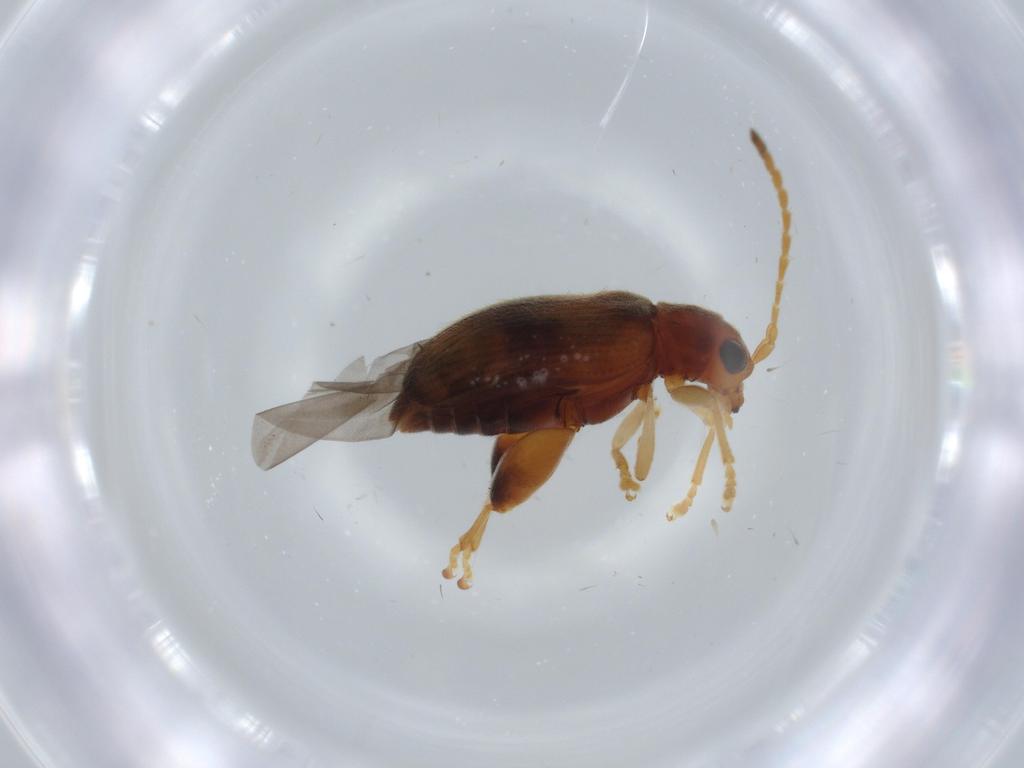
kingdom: Animalia
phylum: Arthropoda
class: Insecta
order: Coleoptera
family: Chrysomelidae
